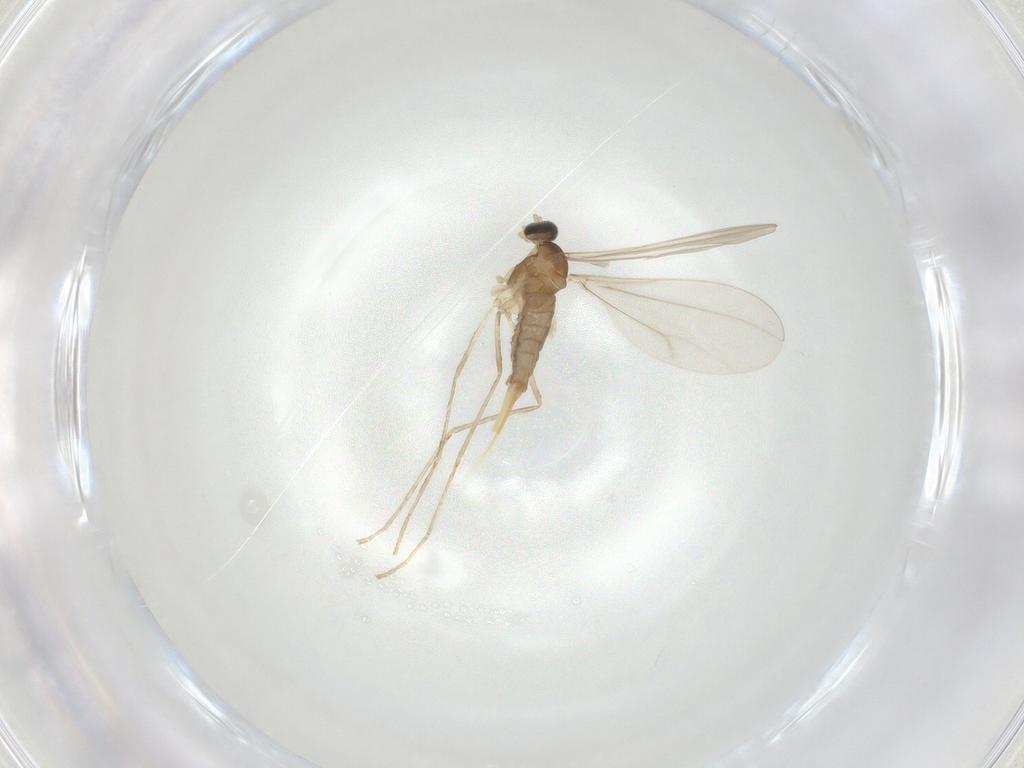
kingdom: Animalia
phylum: Arthropoda
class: Insecta
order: Diptera
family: Cecidomyiidae
